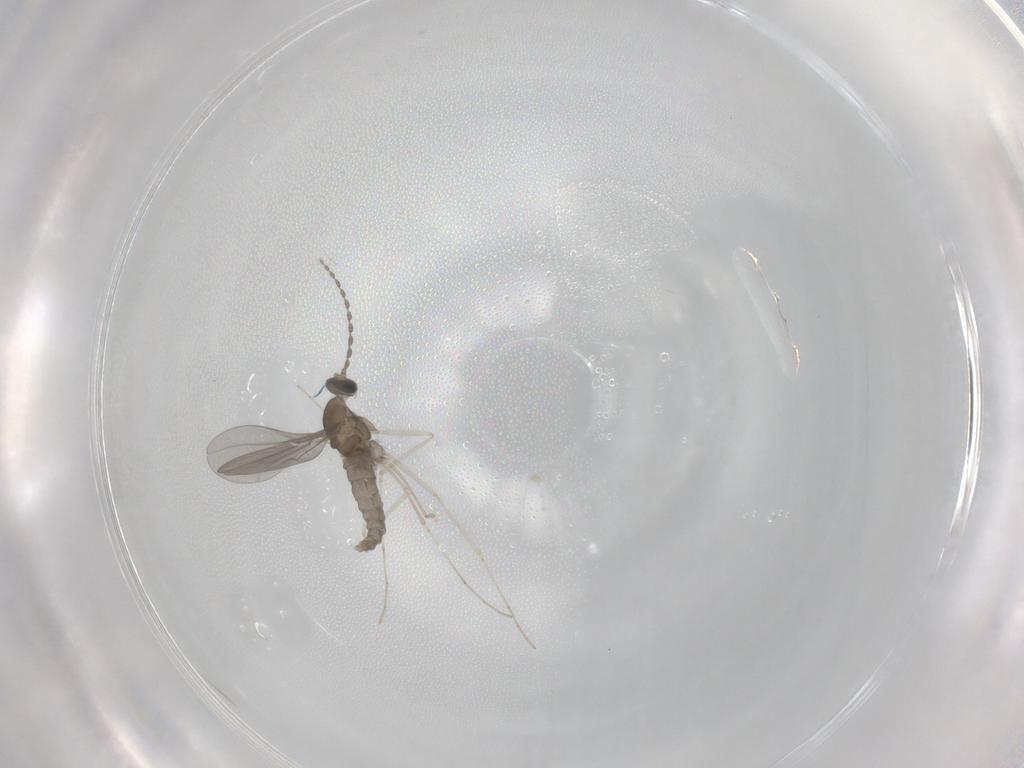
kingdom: Animalia
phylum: Arthropoda
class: Insecta
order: Diptera
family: Cecidomyiidae
